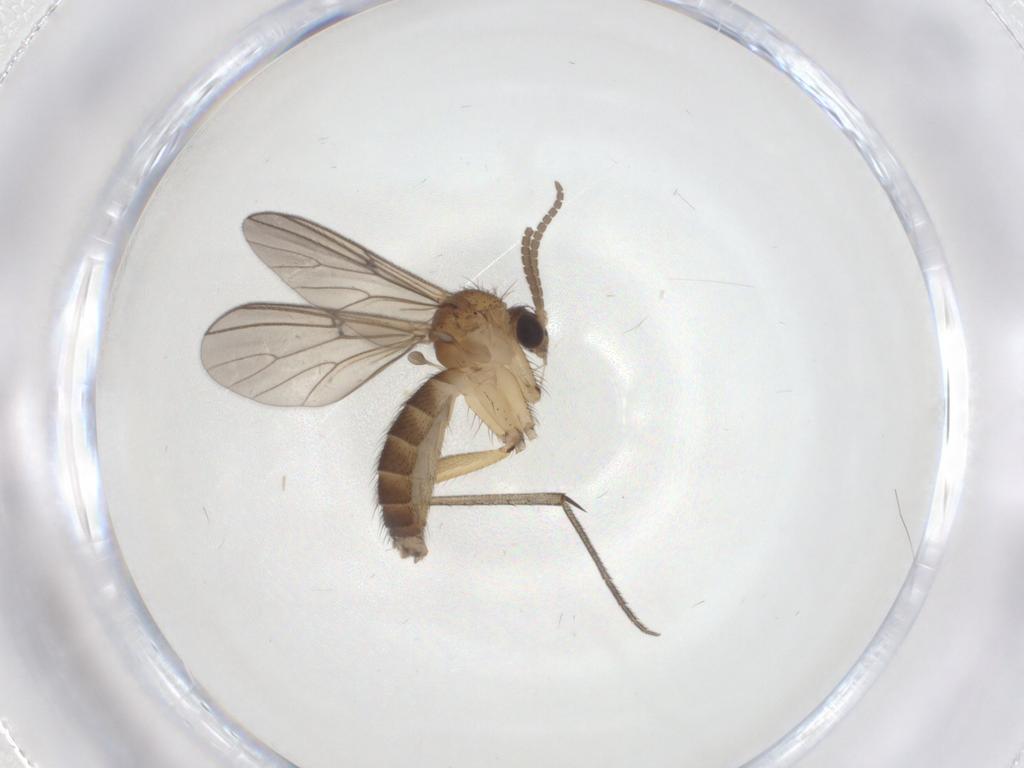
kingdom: Animalia
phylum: Arthropoda
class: Insecta
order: Diptera
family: Mycetophilidae
